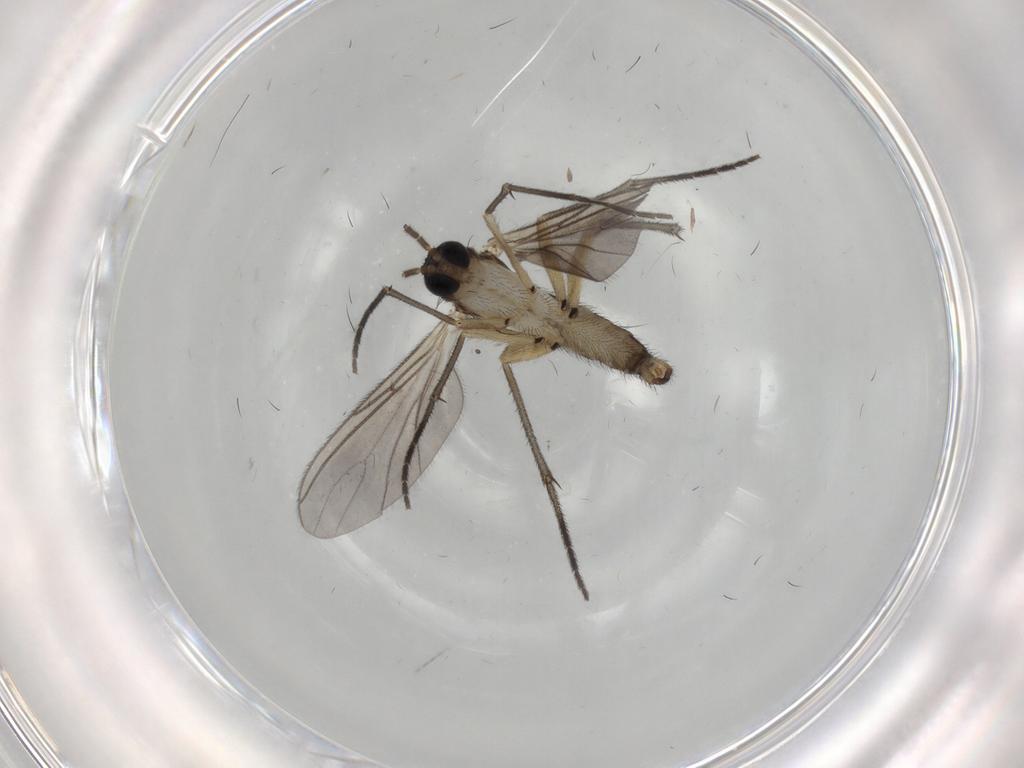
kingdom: Animalia
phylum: Arthropoda
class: Insecta
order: Diptera
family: Sciaridae
